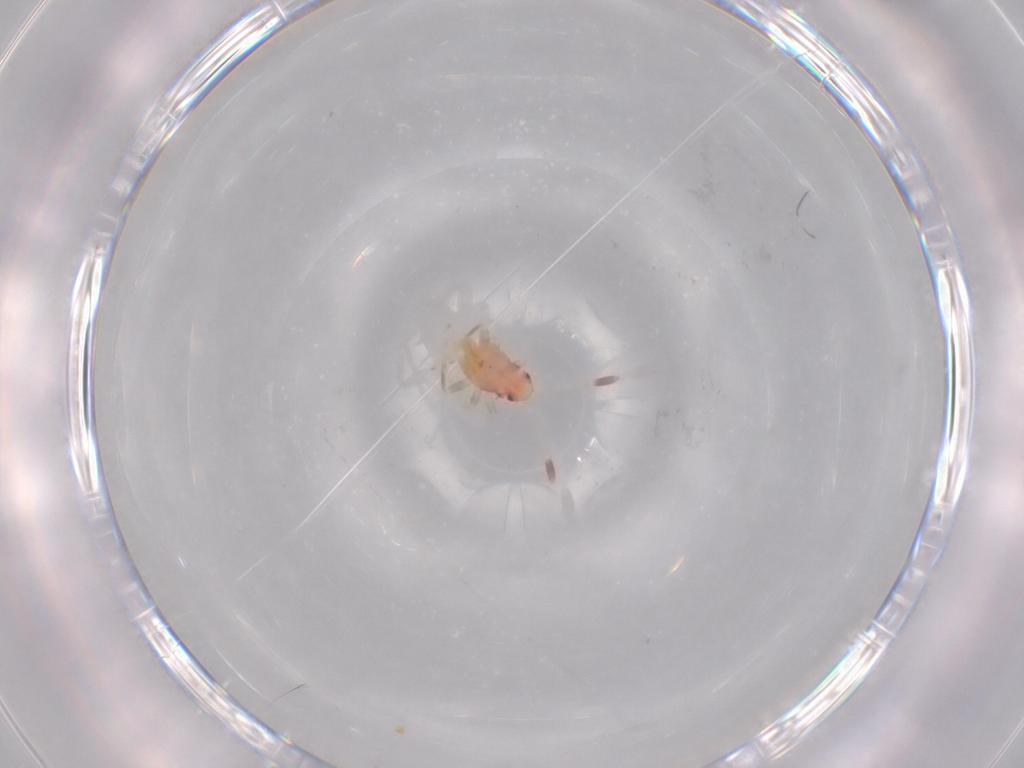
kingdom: Animalia
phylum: Arthropoda
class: Insecta
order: Hemiptera
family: Miridae
